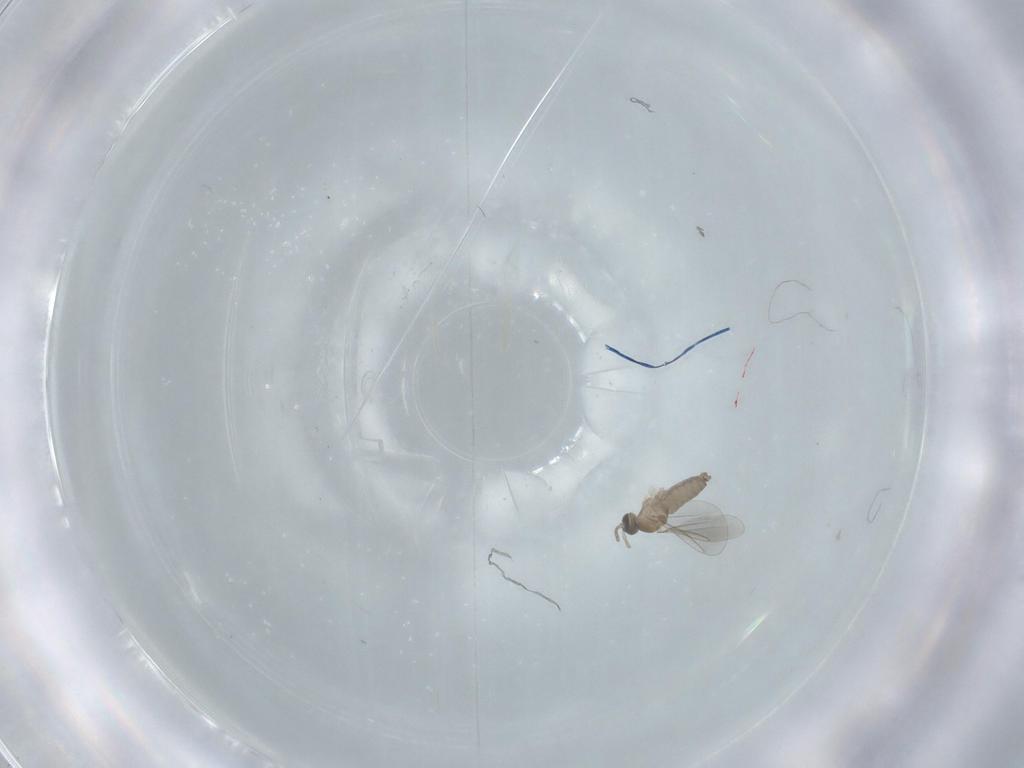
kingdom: Animalia
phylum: Arthropoda
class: Insecta
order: Diptera
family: Cecidomyiidae
